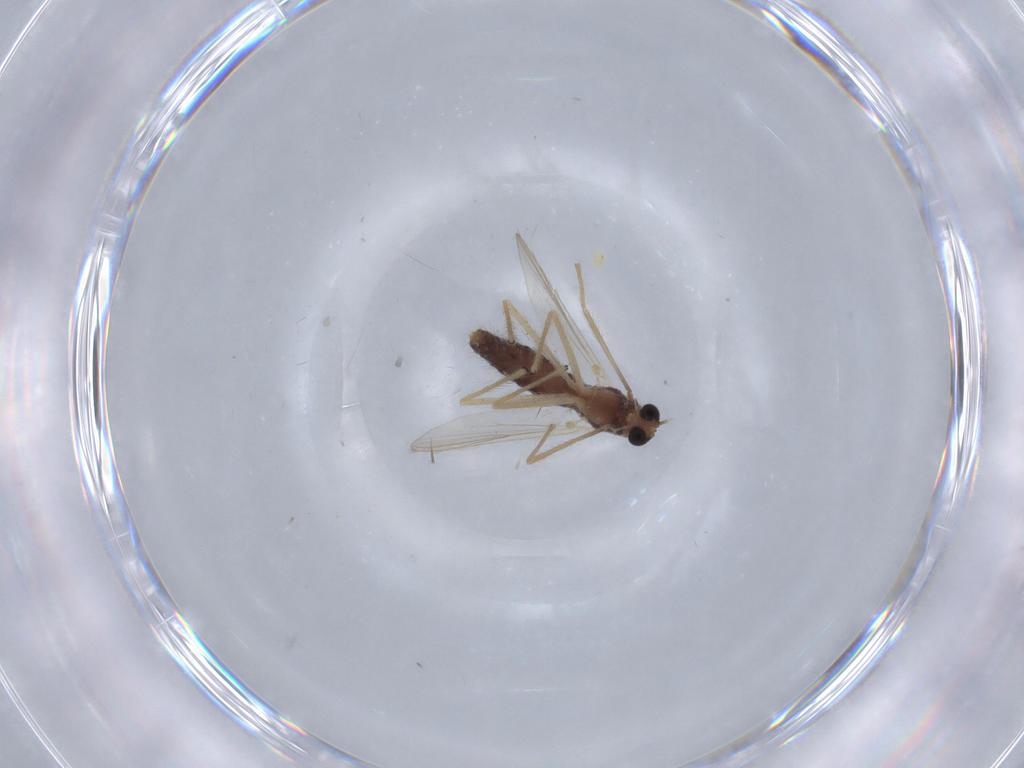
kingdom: Animalia
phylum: Arthropoda
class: Insecta
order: Diptera
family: Chironomidae
